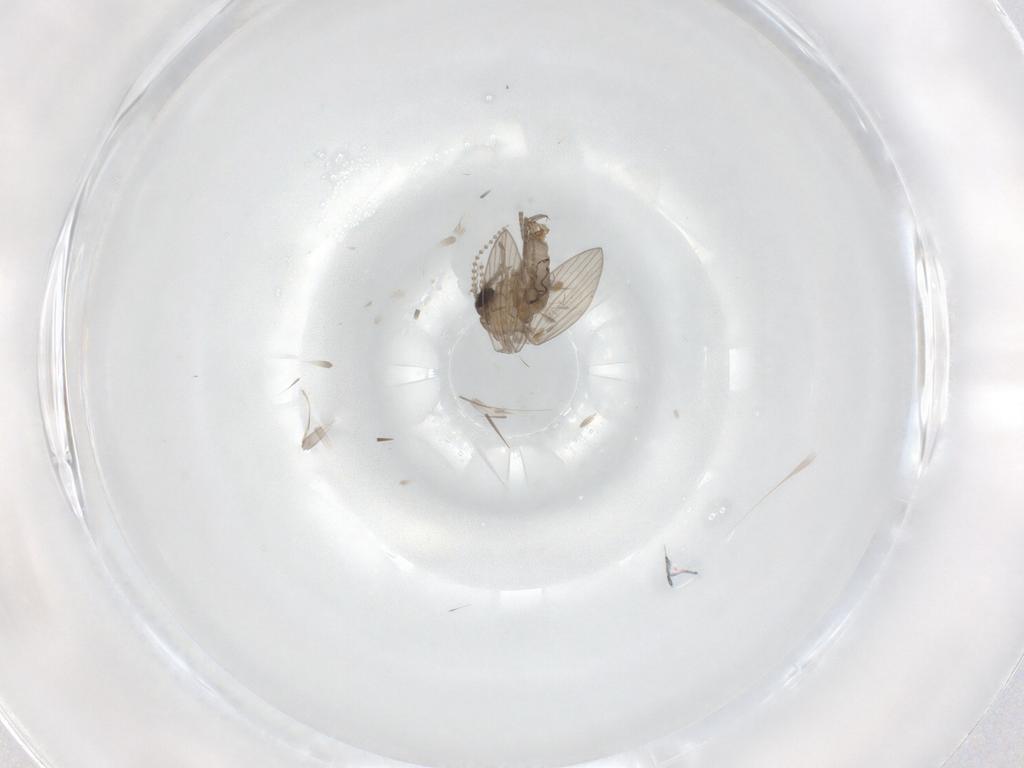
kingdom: Animalia
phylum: Arthropoda
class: Insecta
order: Diptera
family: Psychodidae
